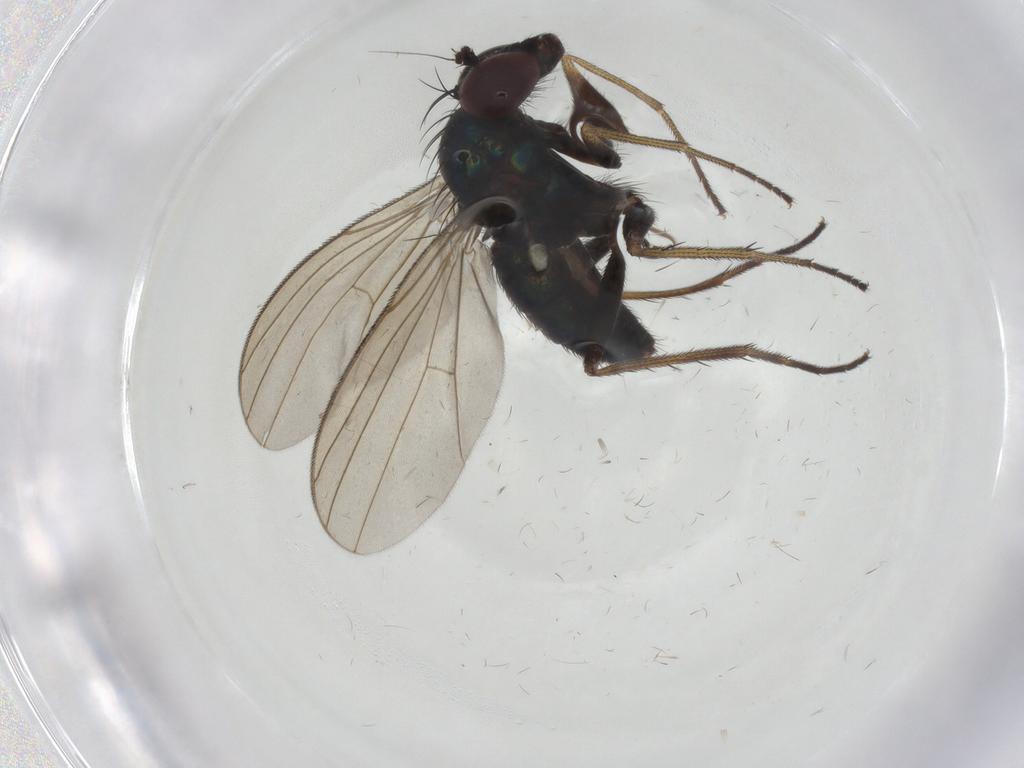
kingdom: Animalia
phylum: Arthropoda
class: Insecta
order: Diptera
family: Dolichopodidae
